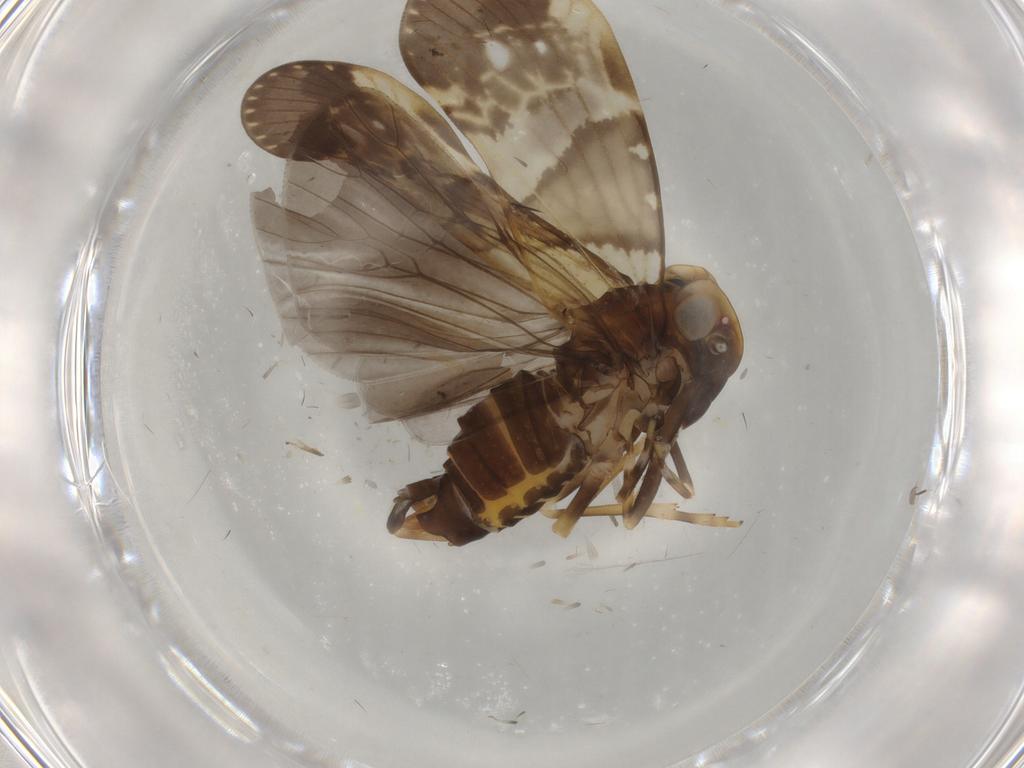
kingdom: Animalia
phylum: Arthropoda
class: Insecta
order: Hemiptera
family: Cixiidae
